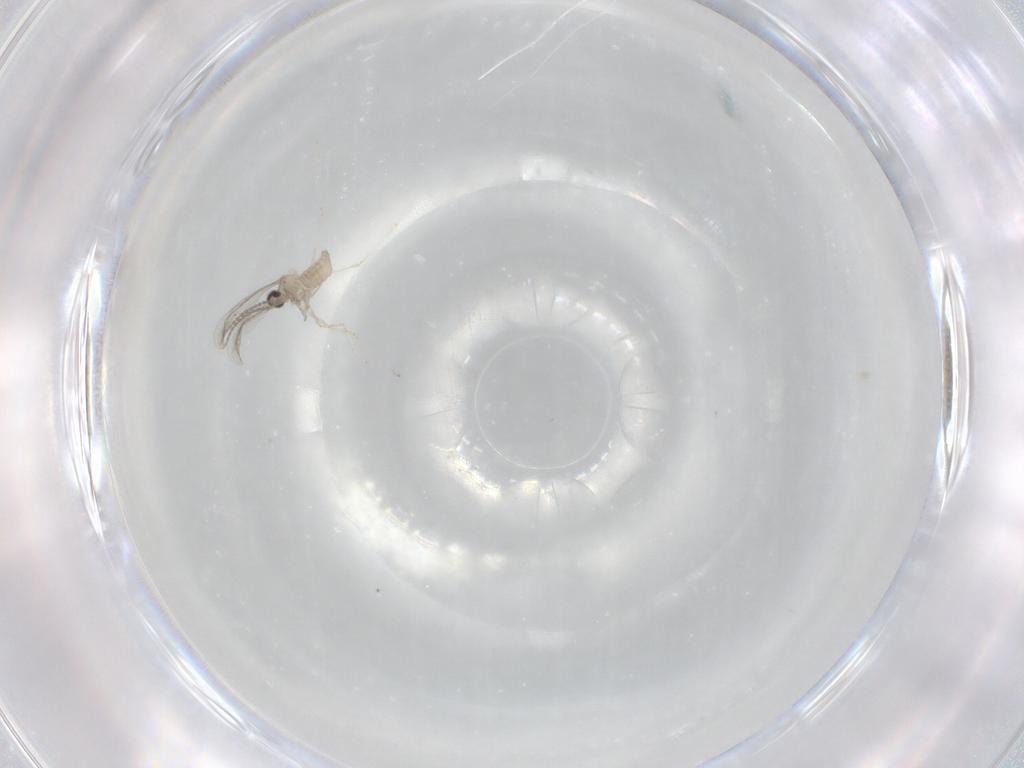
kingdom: Animalia
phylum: Arthropoda
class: Insecta
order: Diptera
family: Cecidomyiidae
